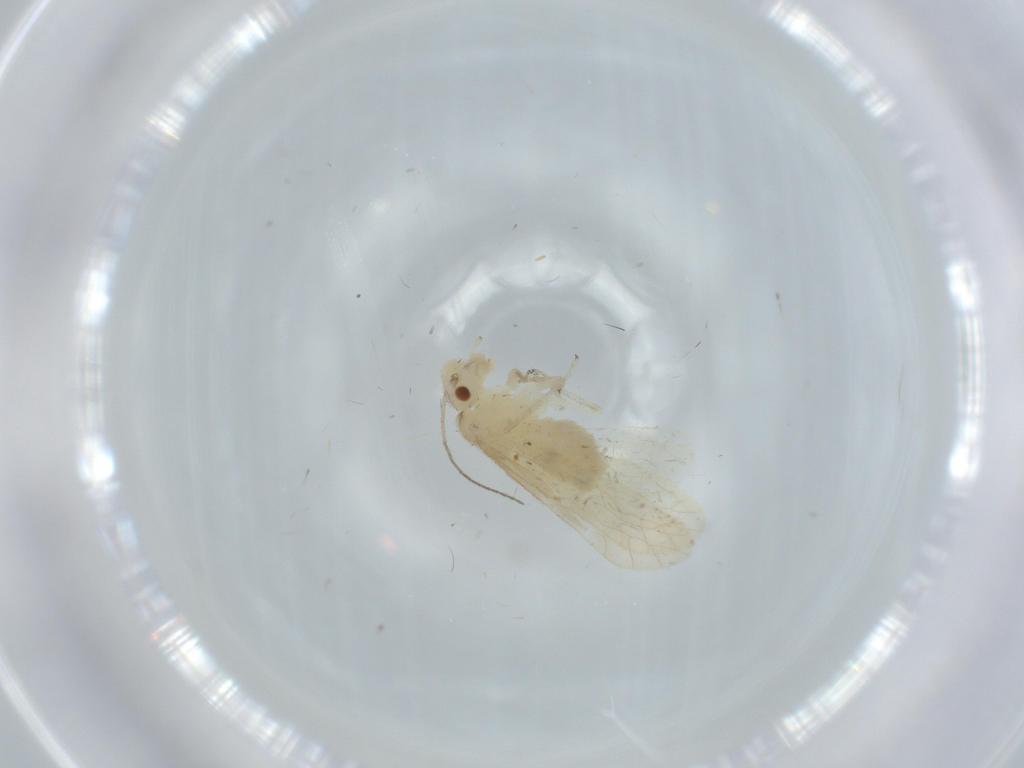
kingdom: Animalia
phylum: Arthropoda
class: Insecta
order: Psocodea
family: Caeciliusidae
